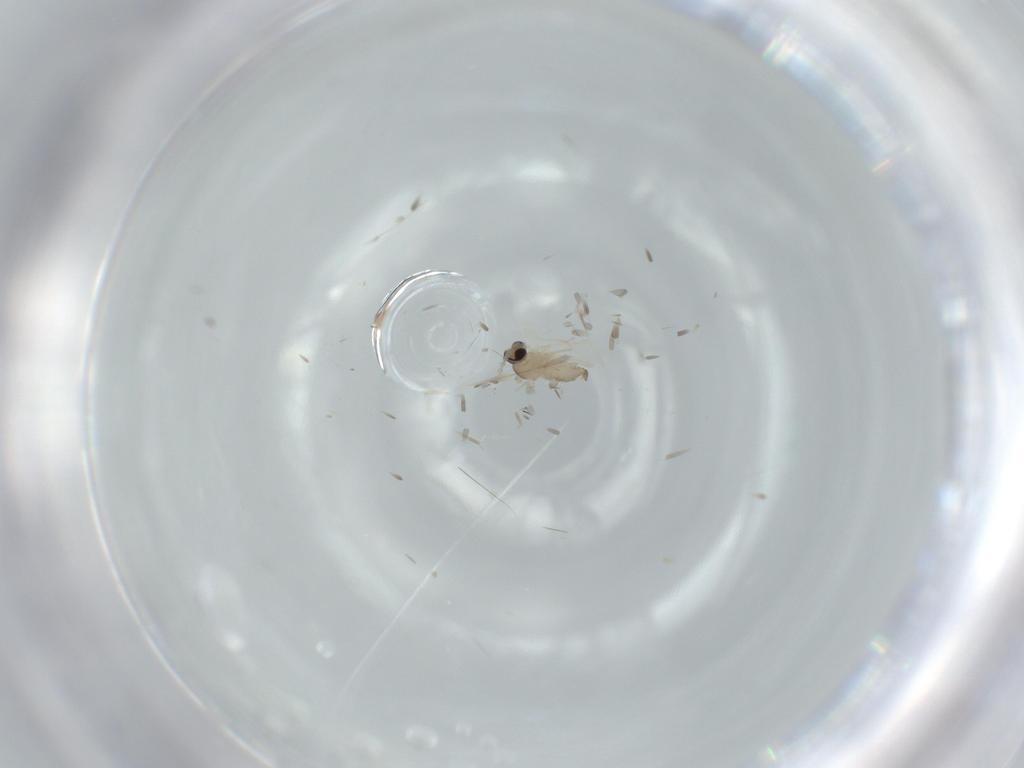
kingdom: Animalia
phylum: Arthropoda
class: Insecta
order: Diptera
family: Cecidomyiidae
